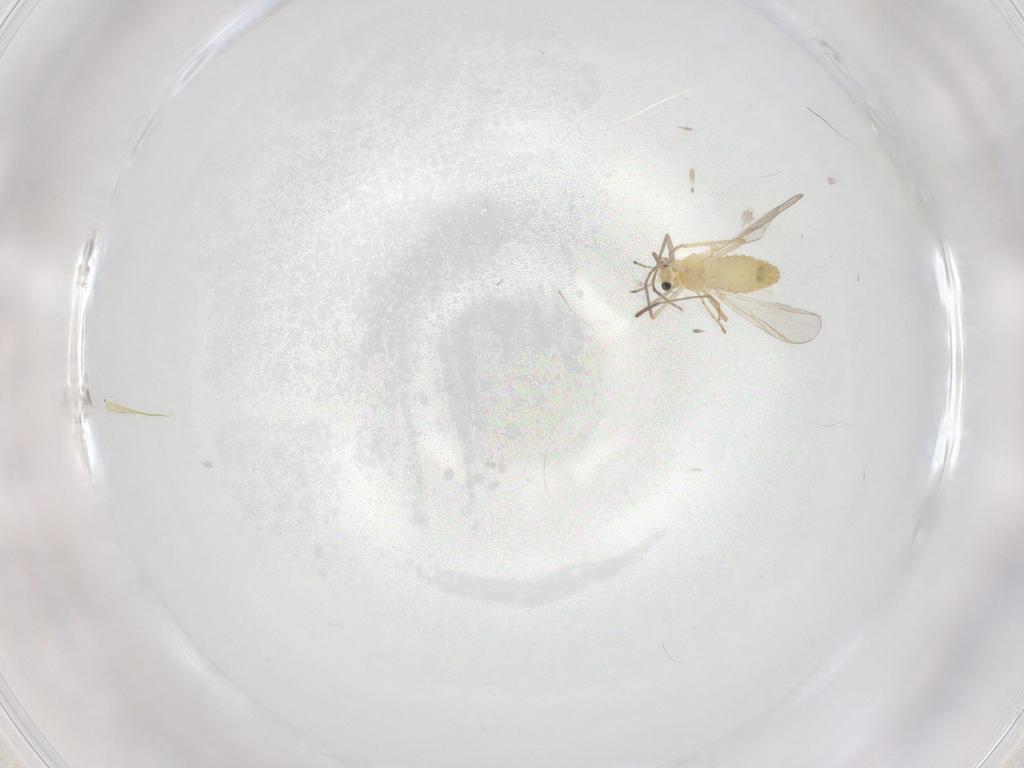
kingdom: Animalia
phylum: Arthropoda
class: Insecta
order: Diptera
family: Chironomidae
